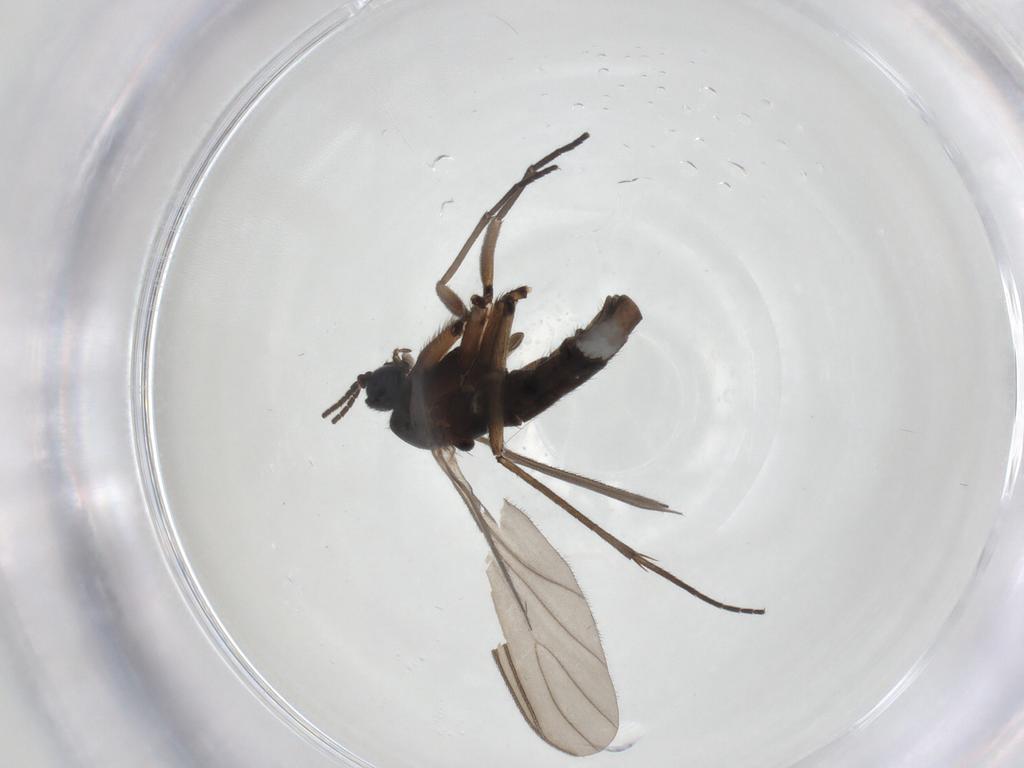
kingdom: Animalia
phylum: Arthropoda
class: Insecta
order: Diptera
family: Sciaridae
